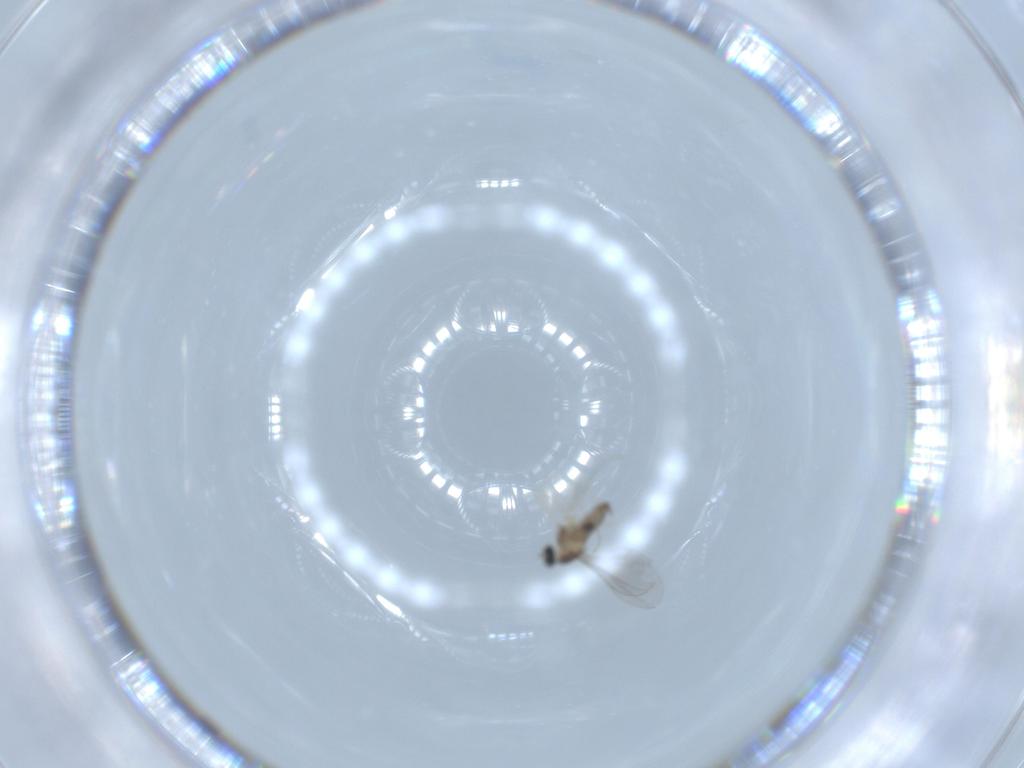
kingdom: Animalia
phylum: Arthropoda
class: Insecta
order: Diptera
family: Cecidomyiidae
